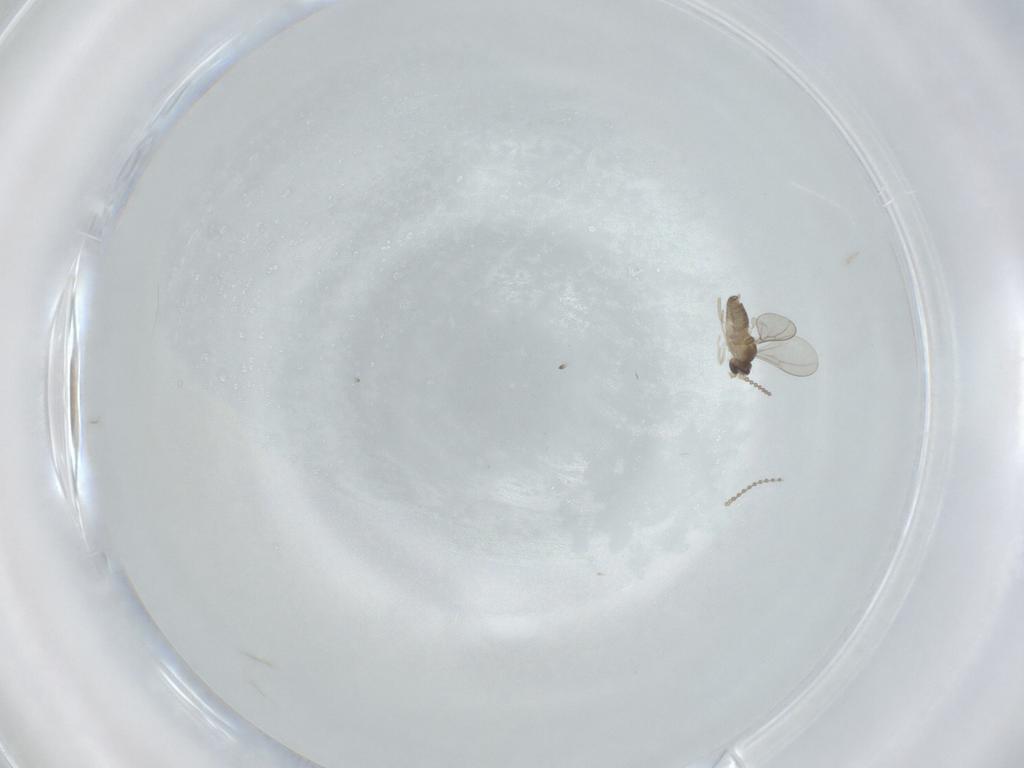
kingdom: Animalia
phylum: Arthropoda
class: Insecta
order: Diptera
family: Cecidomyiidae
